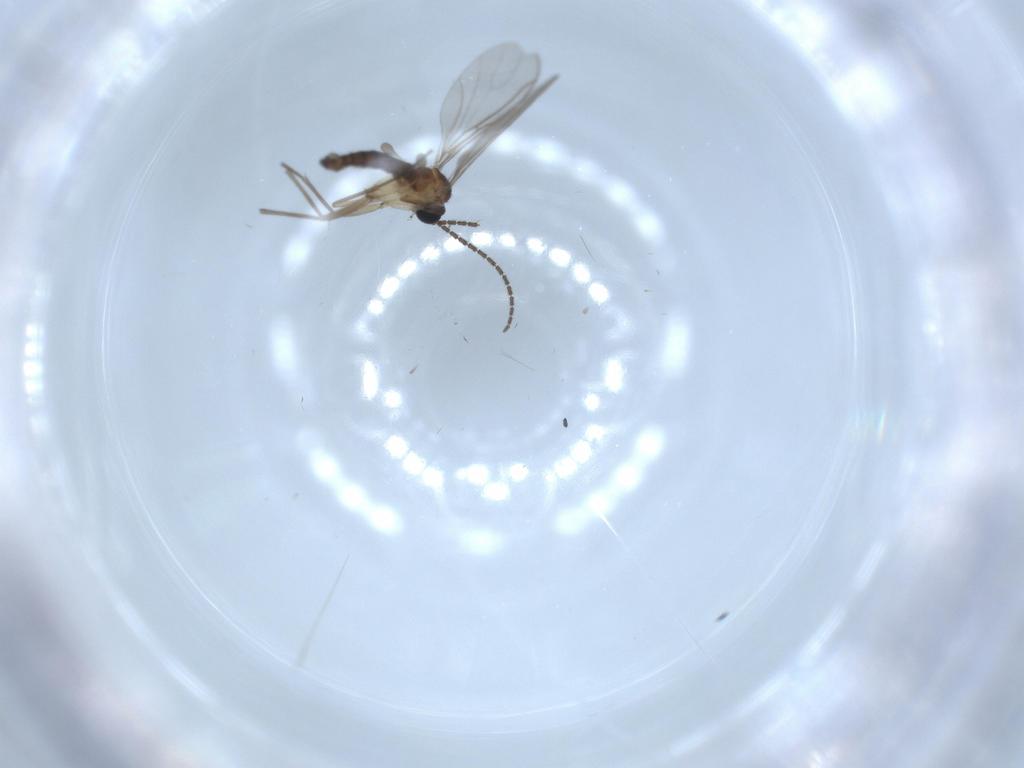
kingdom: Animalia
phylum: Arthropoda
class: Insecta
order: Diptera
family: Sciaridae
